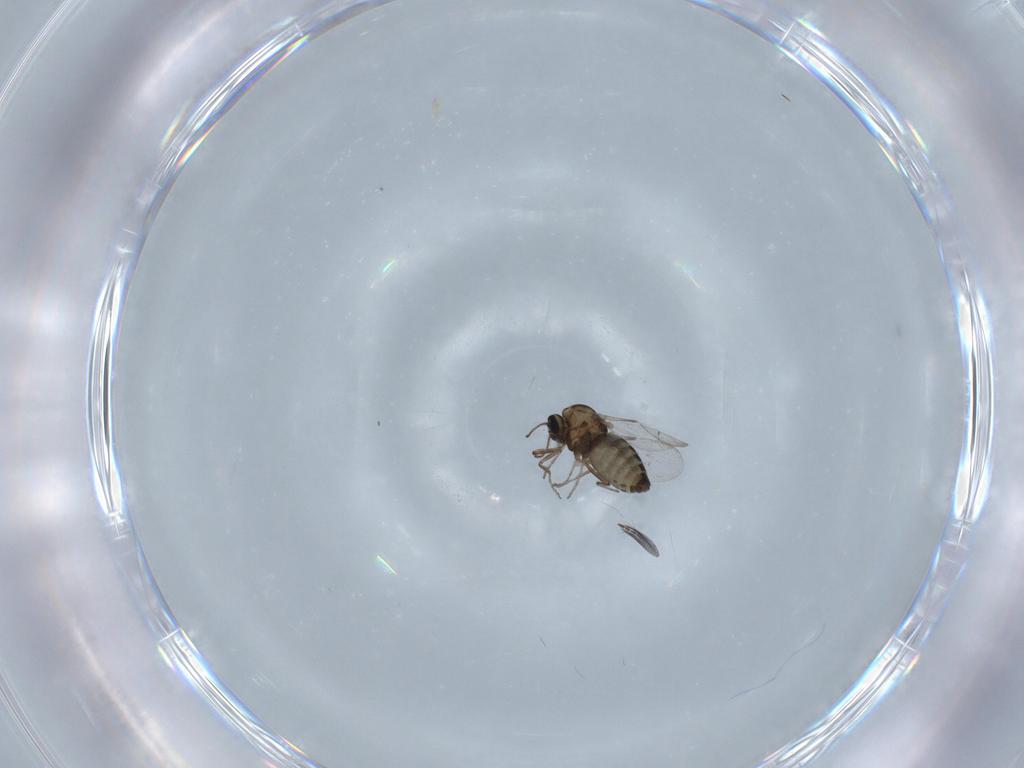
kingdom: Animalia
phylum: Arthropoda
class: Insecta
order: Diptera
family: Ceratopogonidae
